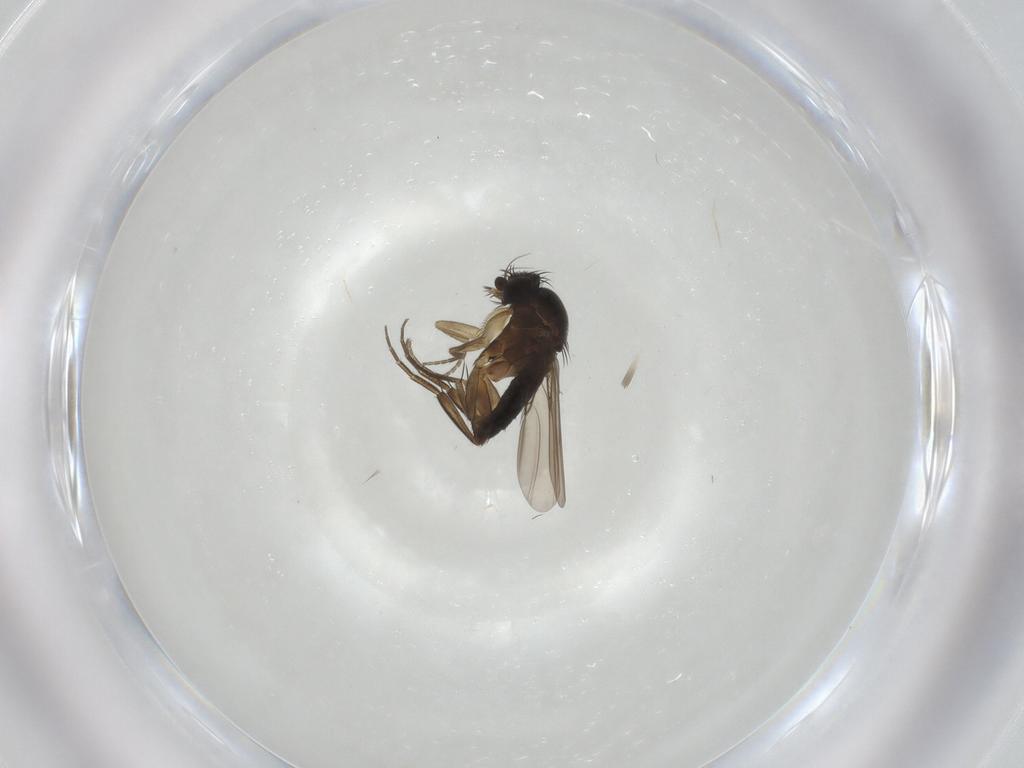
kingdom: Animalia
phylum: Arthropoda
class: Insecta
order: Diptera
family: Phoridae
